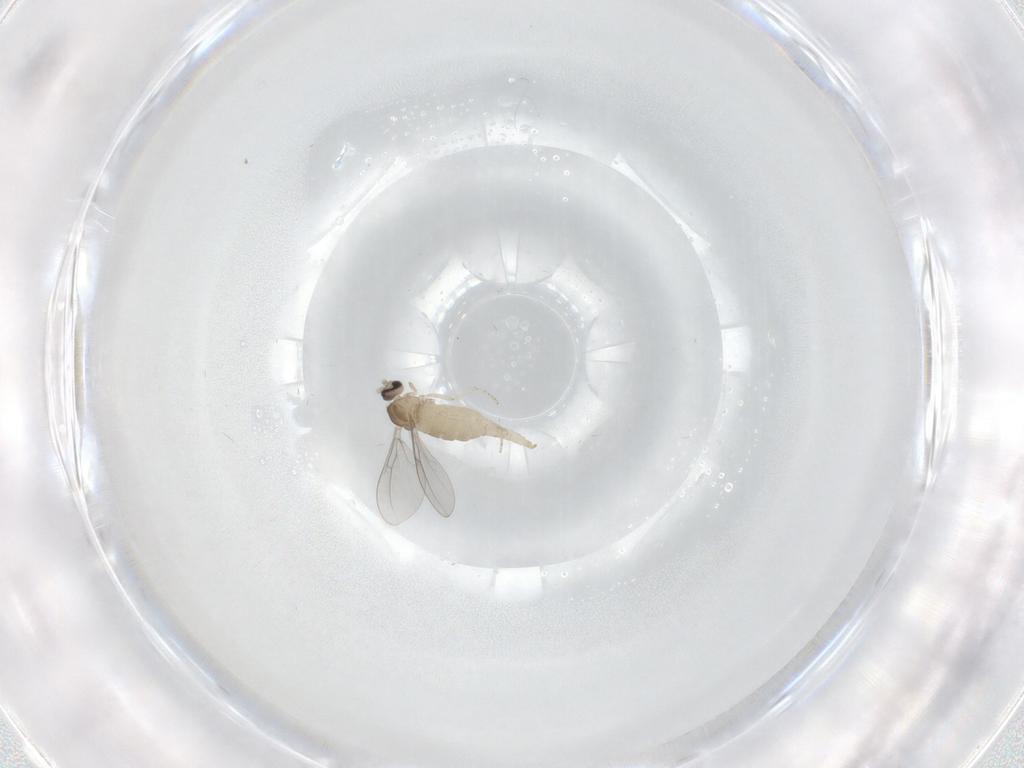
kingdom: Animalia
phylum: Arthropoda
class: Insecta
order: Diptera
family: Cecidomyiidae
